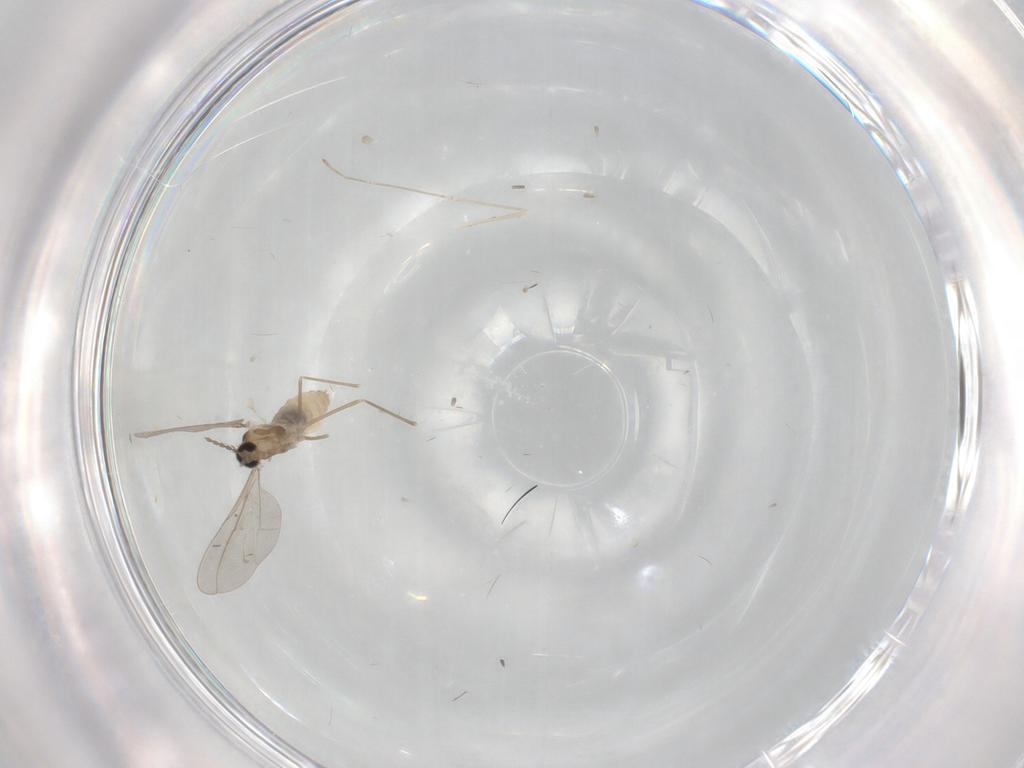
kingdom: Animalia
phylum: Arthropoda
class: Insecta
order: Diptera
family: Cecidomyiidae
